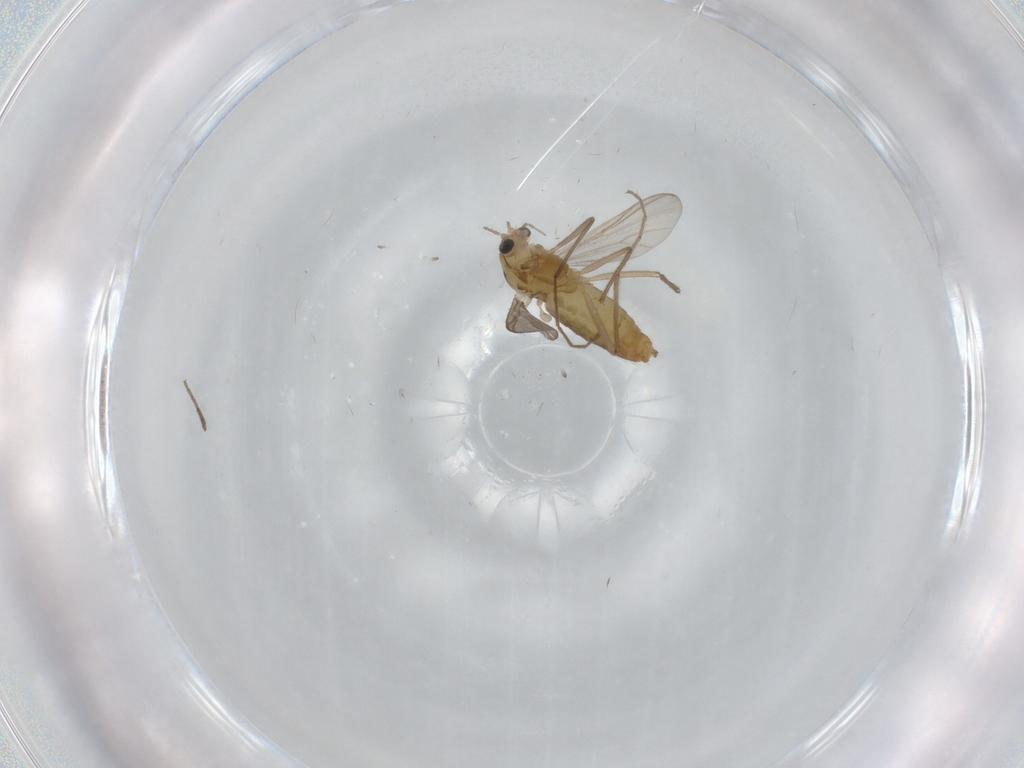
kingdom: Animalia
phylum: Arthropoda
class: Insecta
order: Diptera
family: Chironomidae
